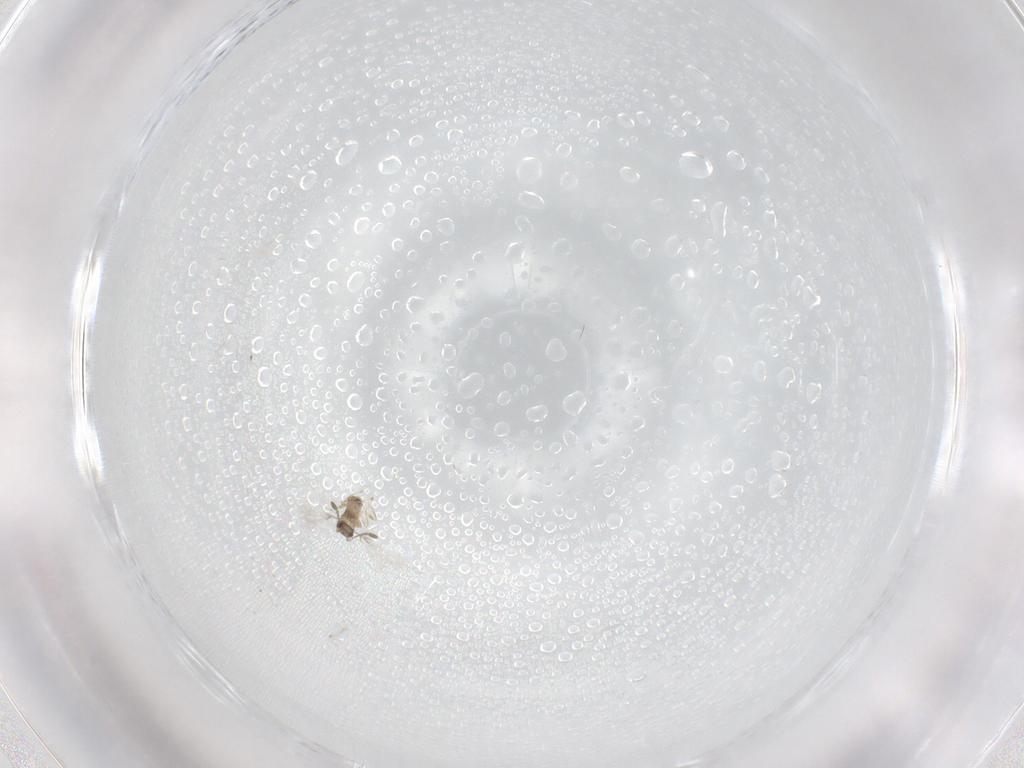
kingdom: Animalia
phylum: Arthropoda
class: Insecta
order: Hymenoptera
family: Mymaridae
